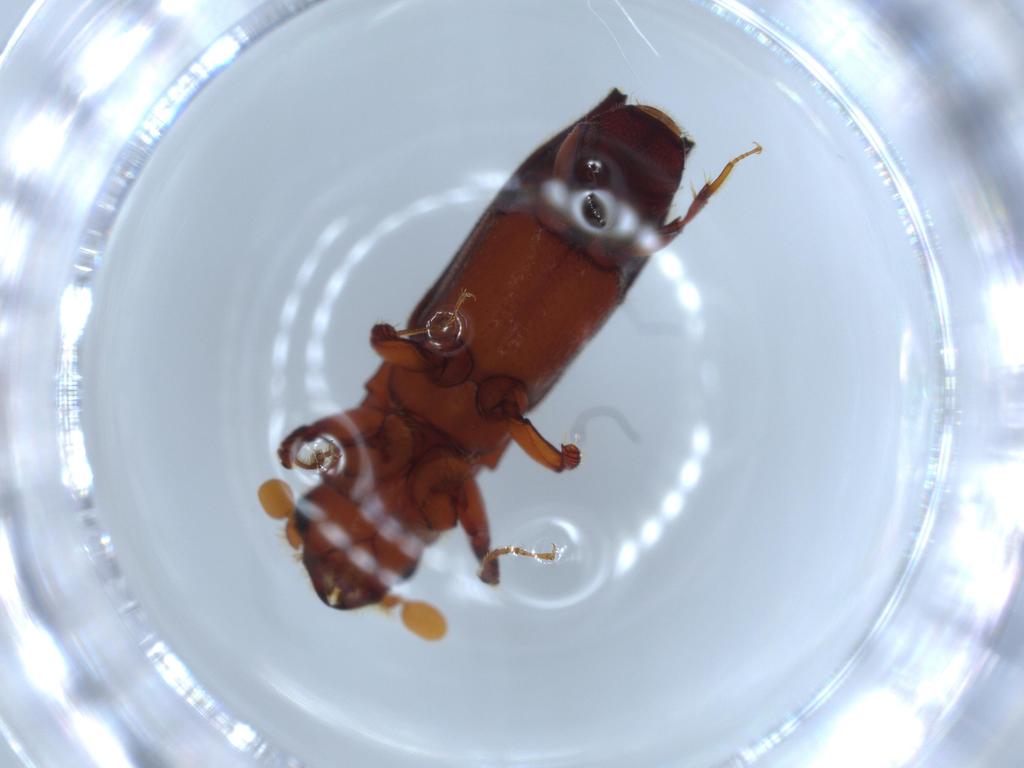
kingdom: Animalia
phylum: Arthropoda
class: Insecta
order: Coleoptera
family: Curculionidae
